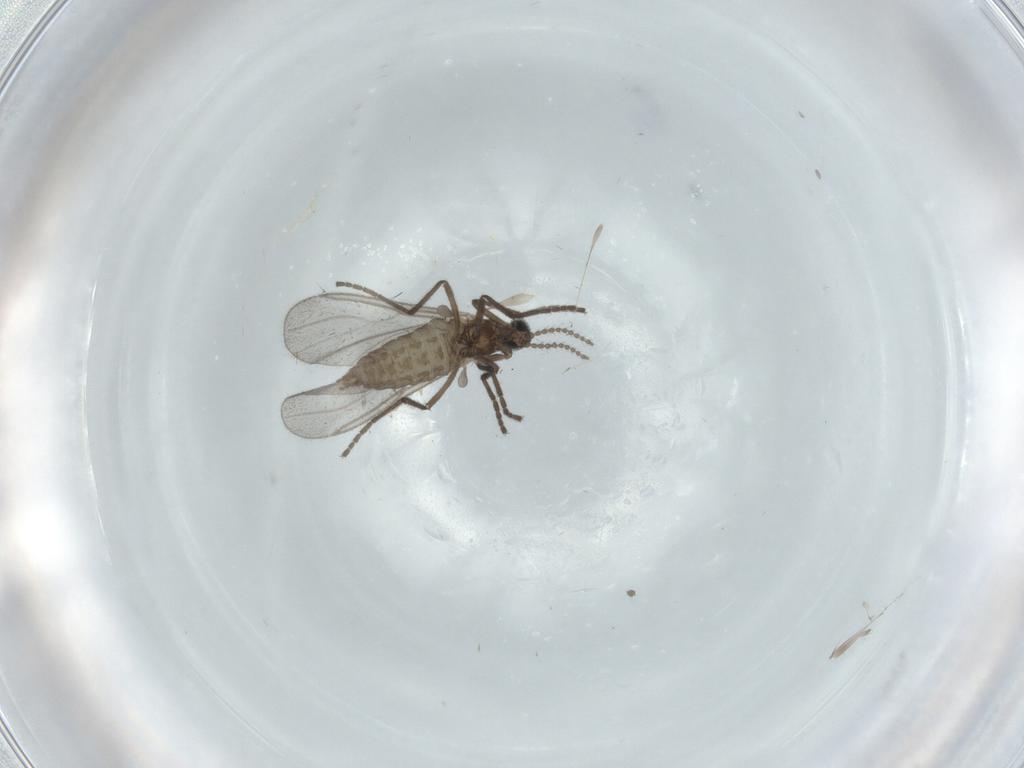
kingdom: Animalia
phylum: Arthropoda
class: Insecta
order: Diptera
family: Cecidomyiidae
